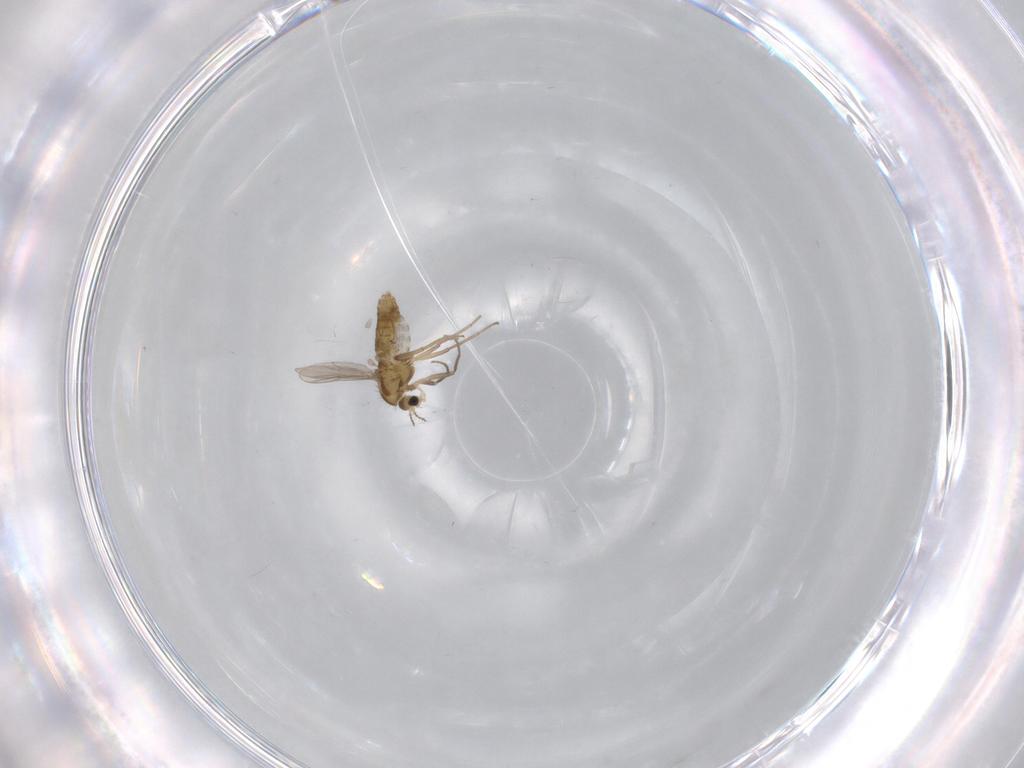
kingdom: Animalia
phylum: Arthropoda
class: Insecta
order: Diptera
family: Chironomidae
